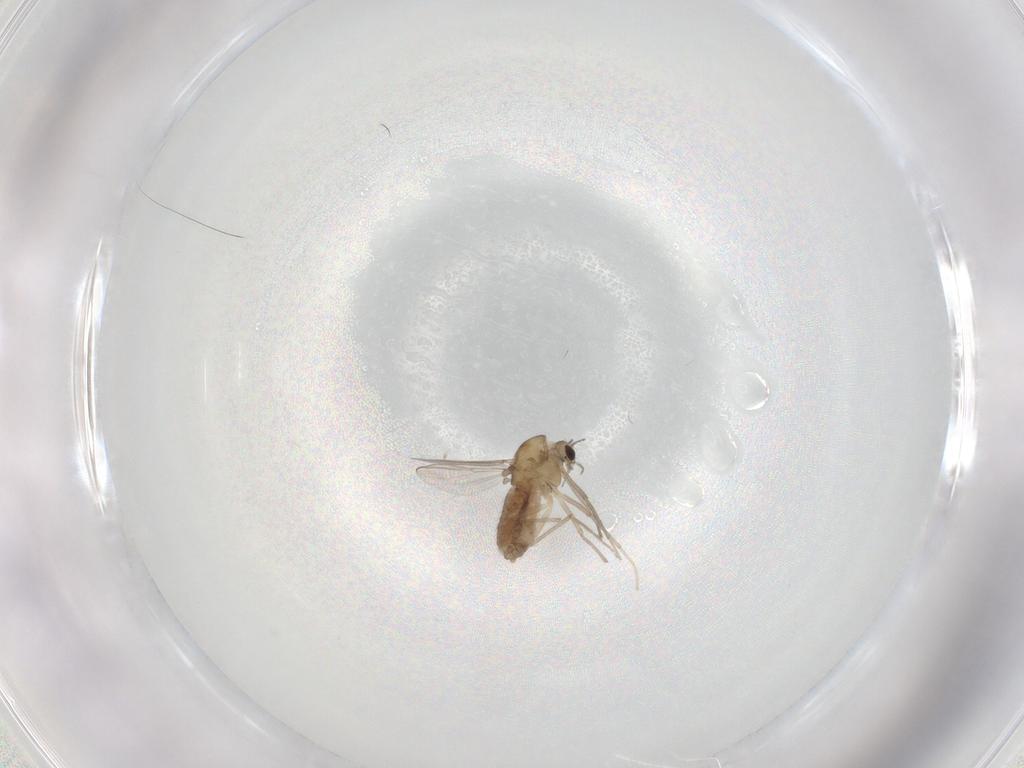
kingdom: Animalia
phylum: Arthropoda
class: Insecta
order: Diptera
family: Chironomidae
